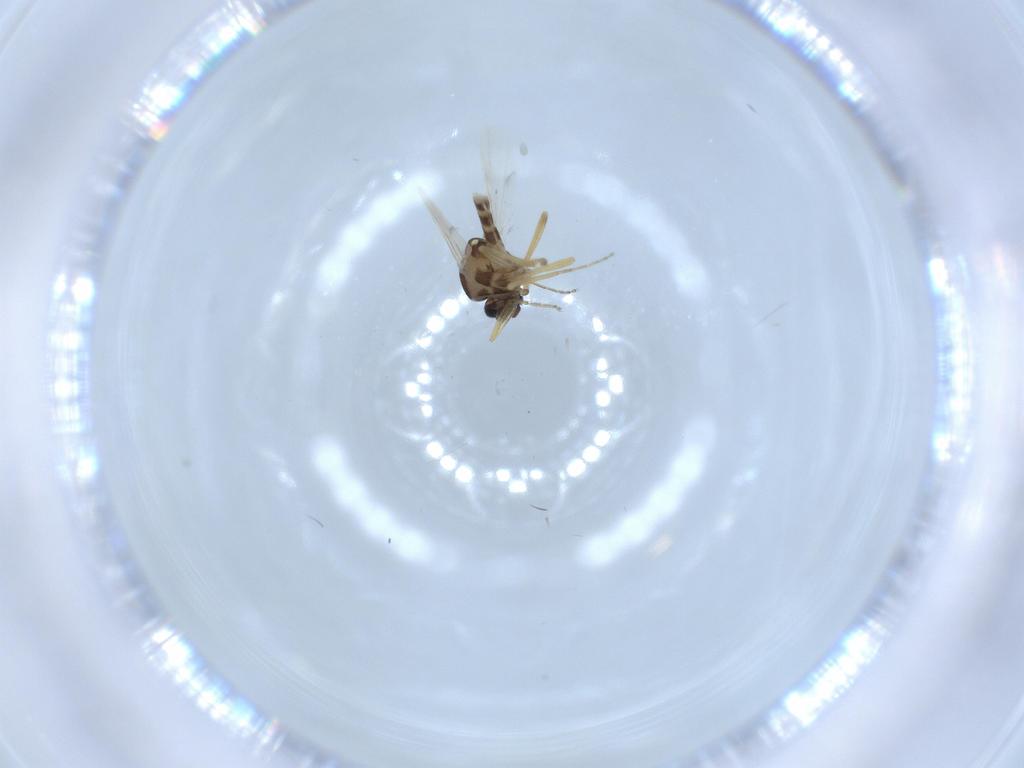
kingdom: Animalia
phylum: Arthropoda
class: Insecta
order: Diptera
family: Ceratopogonidae
